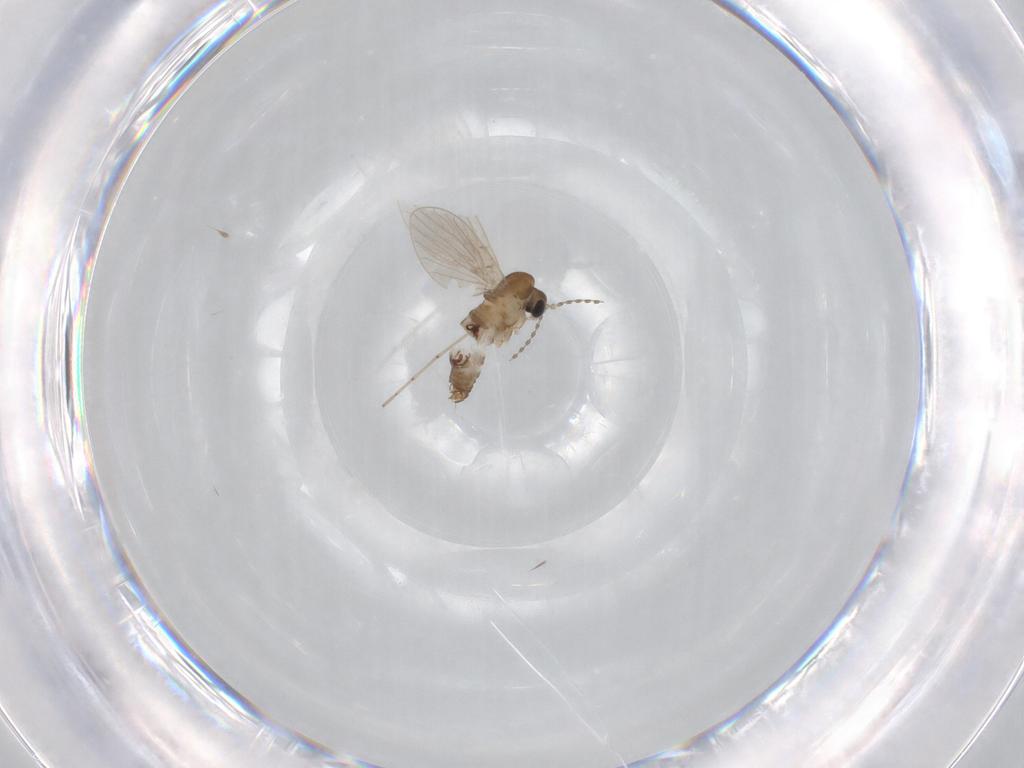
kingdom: Animalia
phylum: Arthropoda
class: Insecta
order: Diptera
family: Cecidomyiidae
